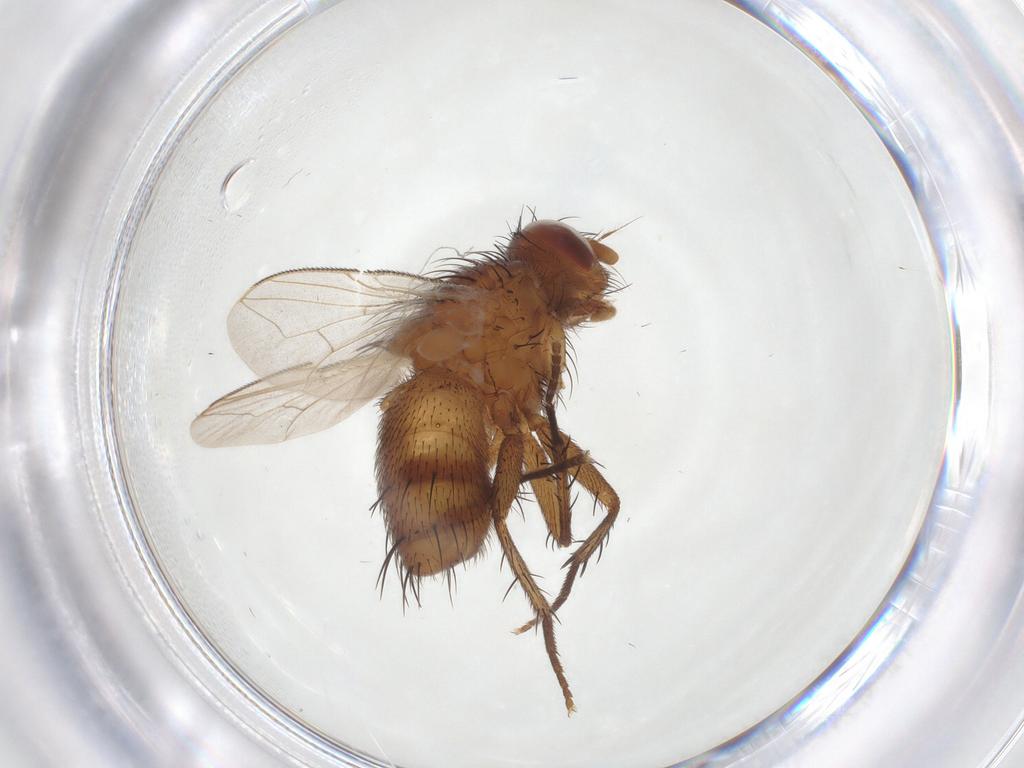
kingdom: Animalia
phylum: Arthropoda
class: Insecta
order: Diptera
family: Sarcophagidae
